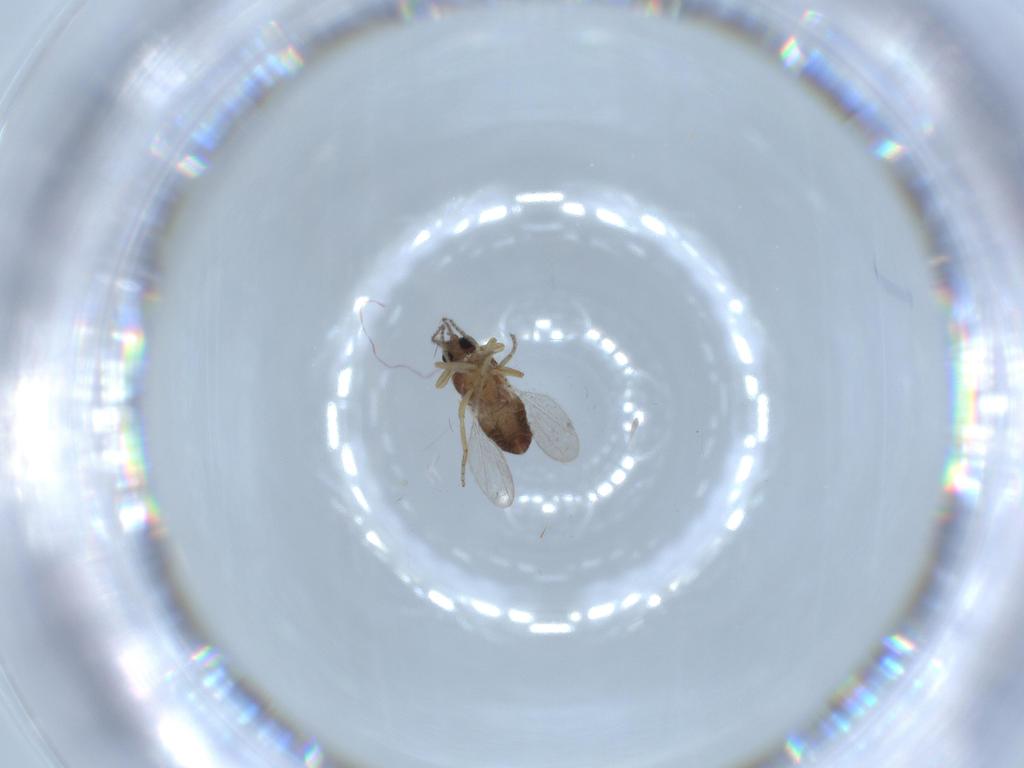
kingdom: Animalia
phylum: Arthropoda
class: Insecta
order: Diptera
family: Ceratopogonidae
